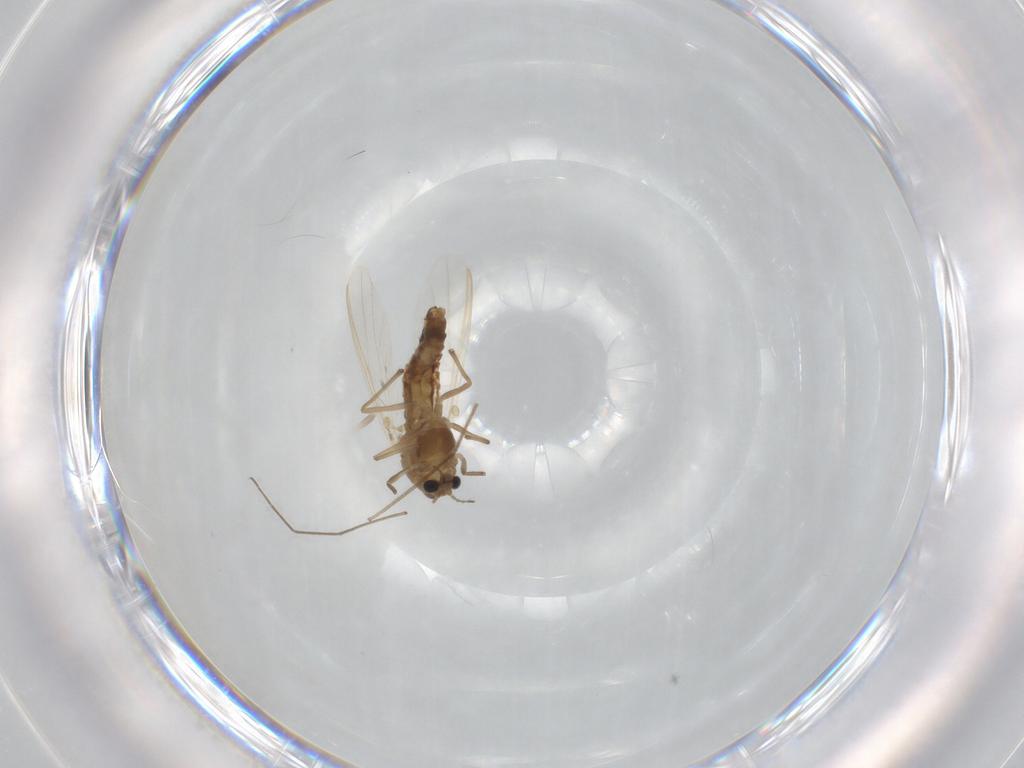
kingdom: Animalia
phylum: Arthropoda
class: Insecta
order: Diptera
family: Chironomidae
